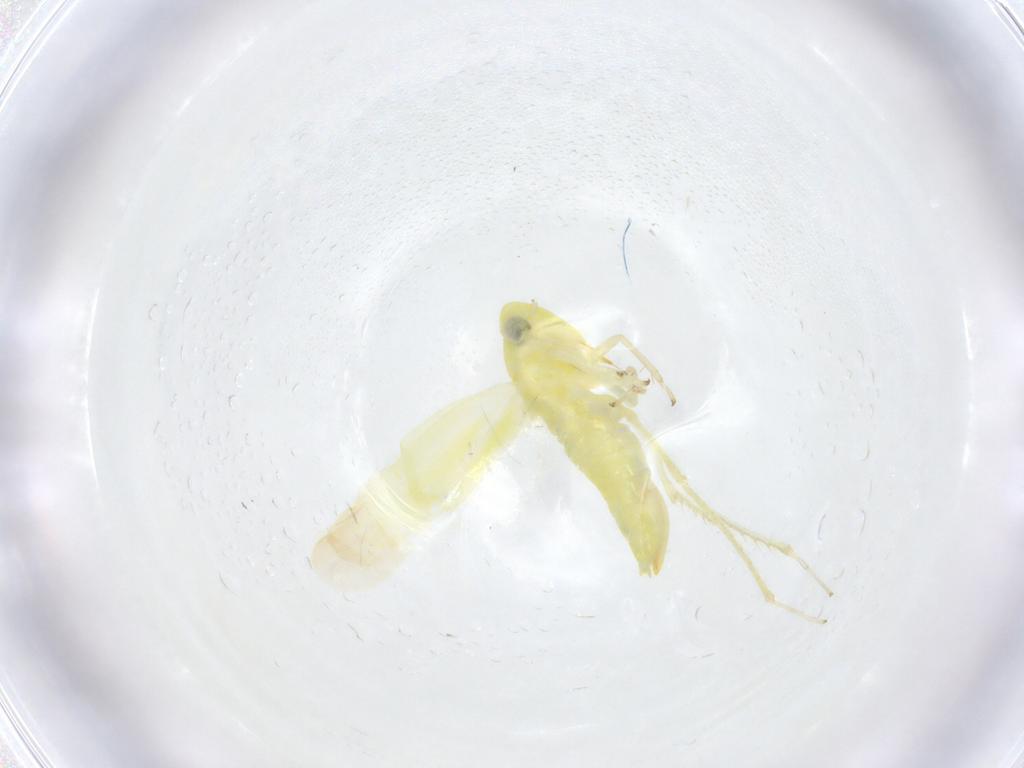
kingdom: Animalia
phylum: Arthropoda
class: Insecta
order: Hemiptera
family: Cicadellidae
